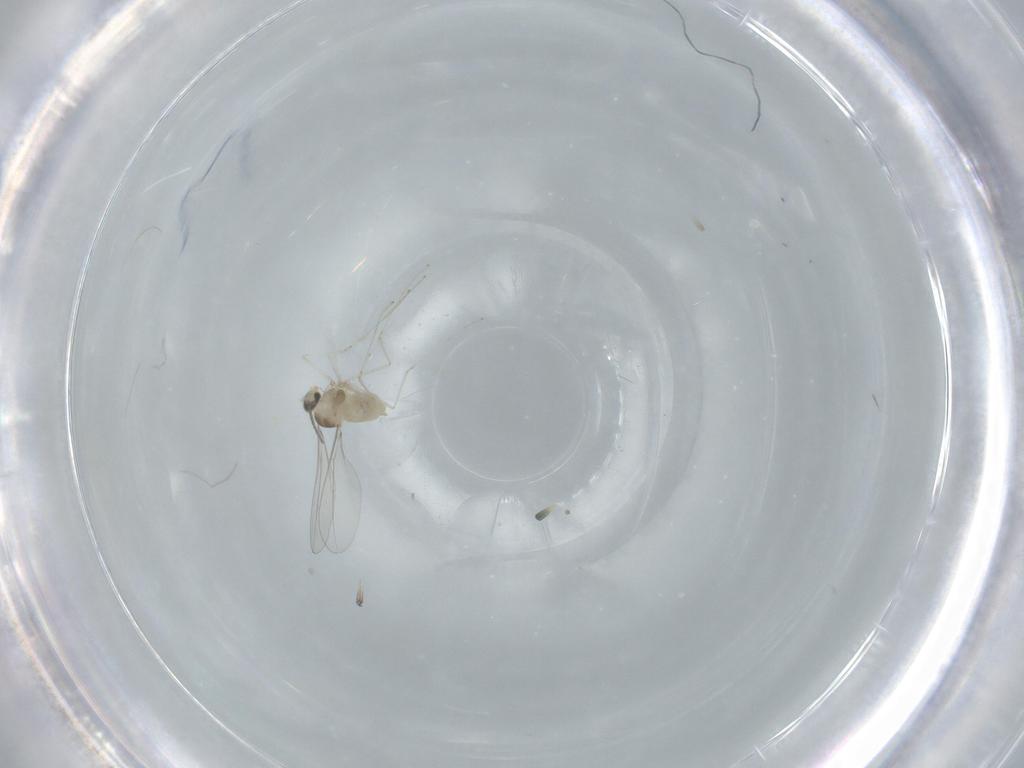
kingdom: Animalia
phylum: Arthropoda
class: Insecta
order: Diptera
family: Cecidomyiidae
